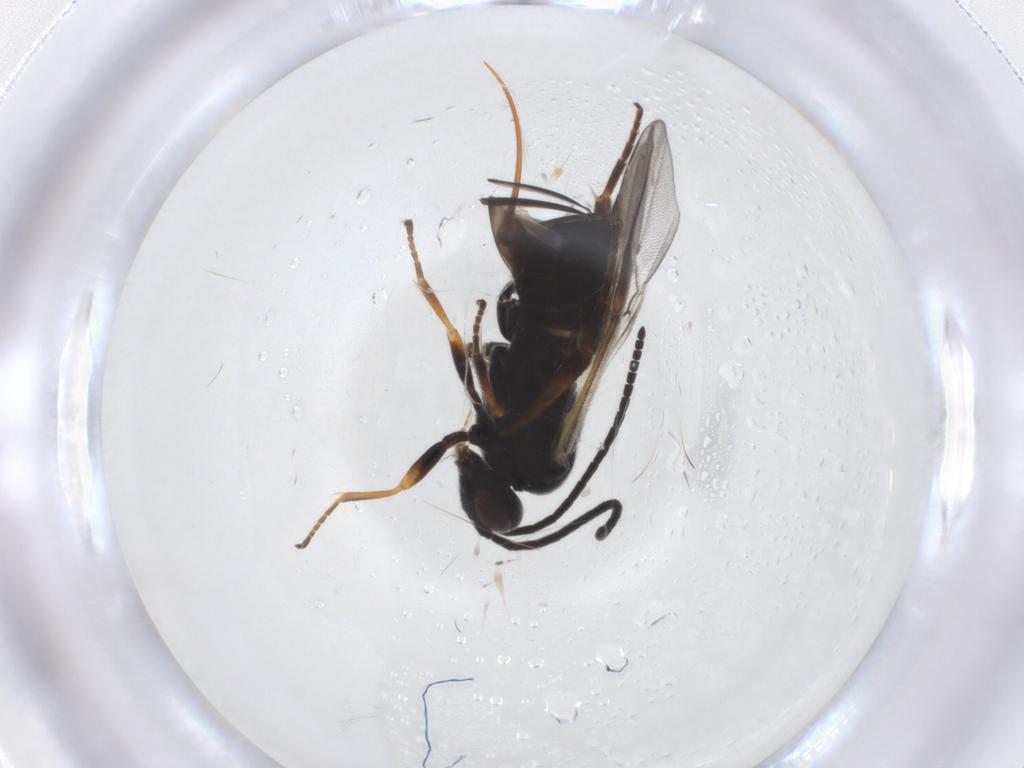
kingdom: Animalia
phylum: Arthropoda
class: Insecta
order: Hymenoptera
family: Braconidae
